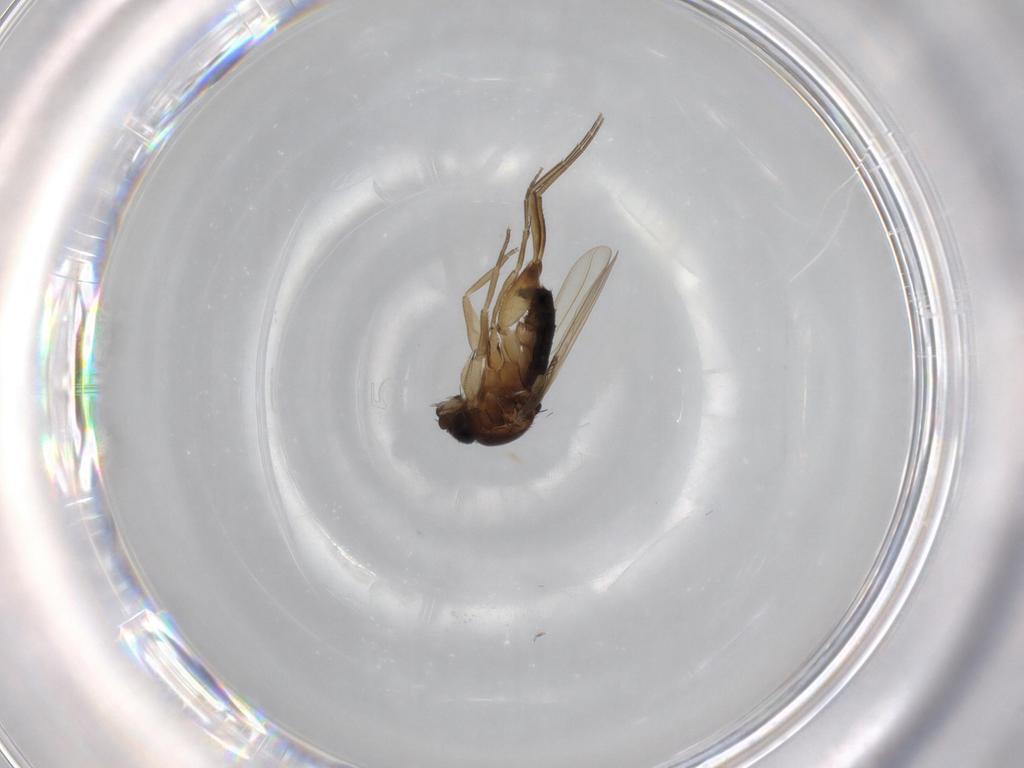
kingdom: Animalia
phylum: Arthropoda
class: Insecta
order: Diptera
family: Phoridae
